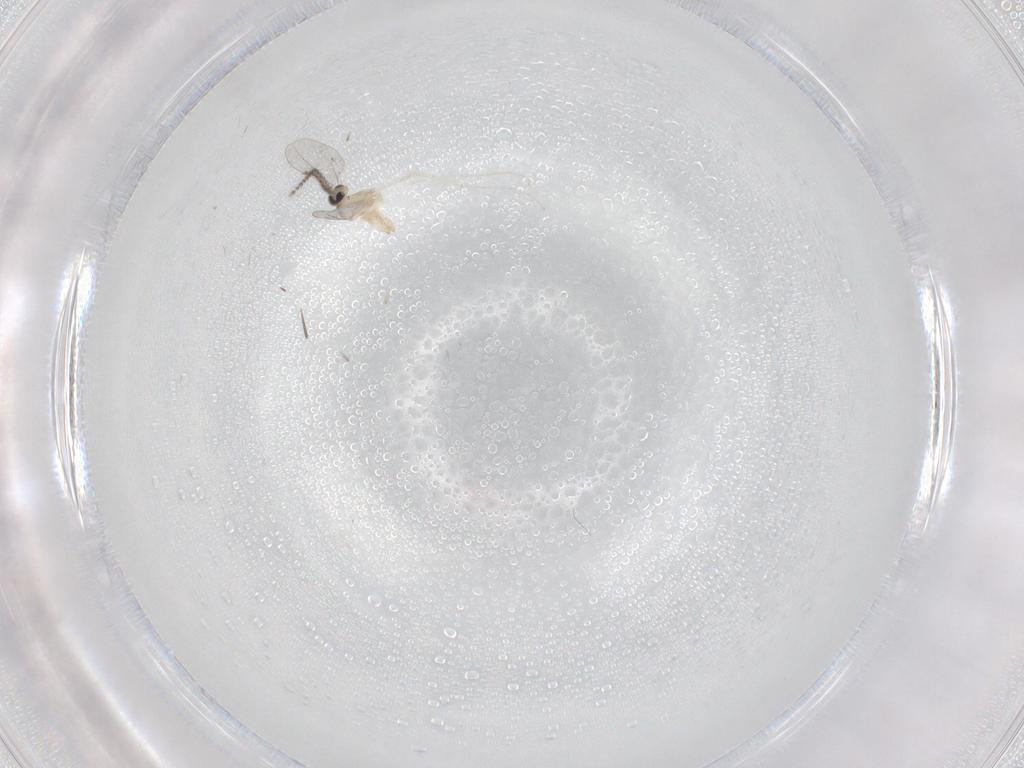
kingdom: Animalia
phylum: Arthropoda
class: Insecta
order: Diptera
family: Cecidomyiidae
